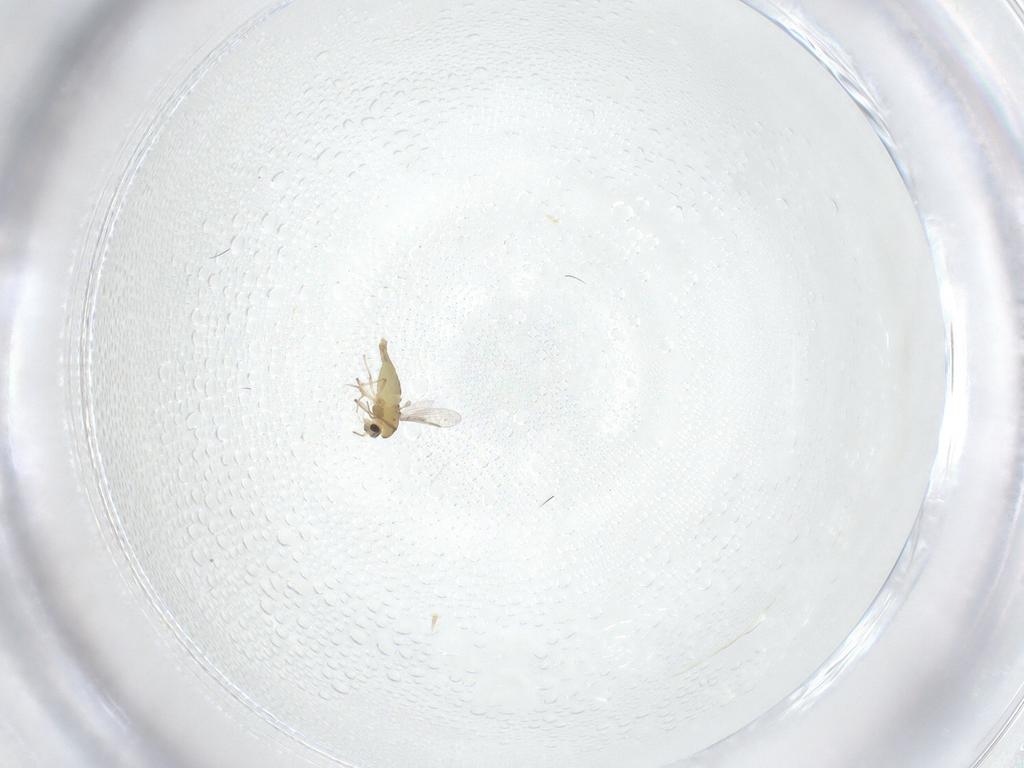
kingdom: Animalia
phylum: Arthropoda
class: Insecta
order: Diptera
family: Chironomidae
